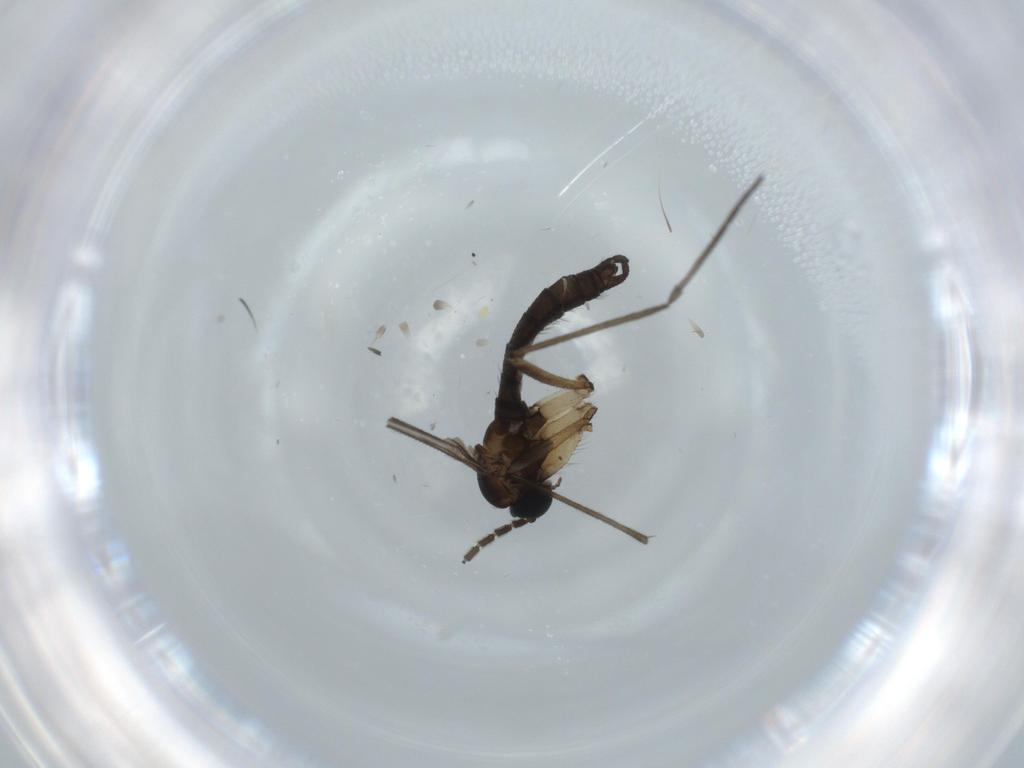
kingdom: Animalia
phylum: Arthropoda
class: Insecta
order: Diptera
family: Sciaridae
